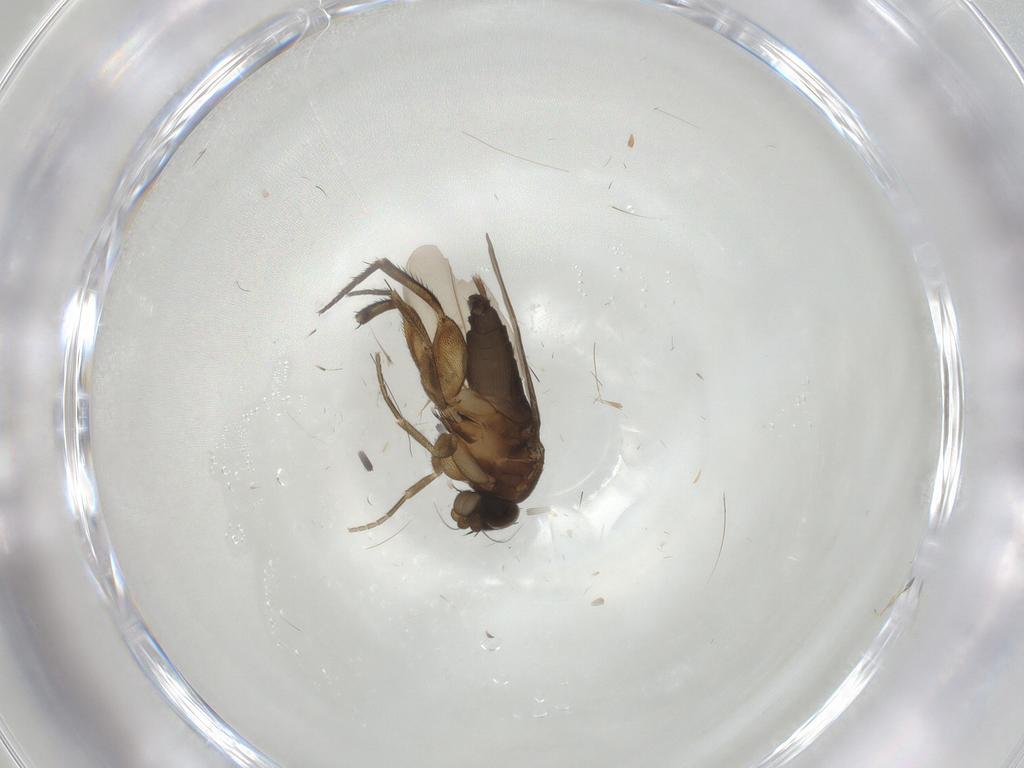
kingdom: Animalia
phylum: Arthropoda
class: Insecta
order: Diptera
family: Phoridae
